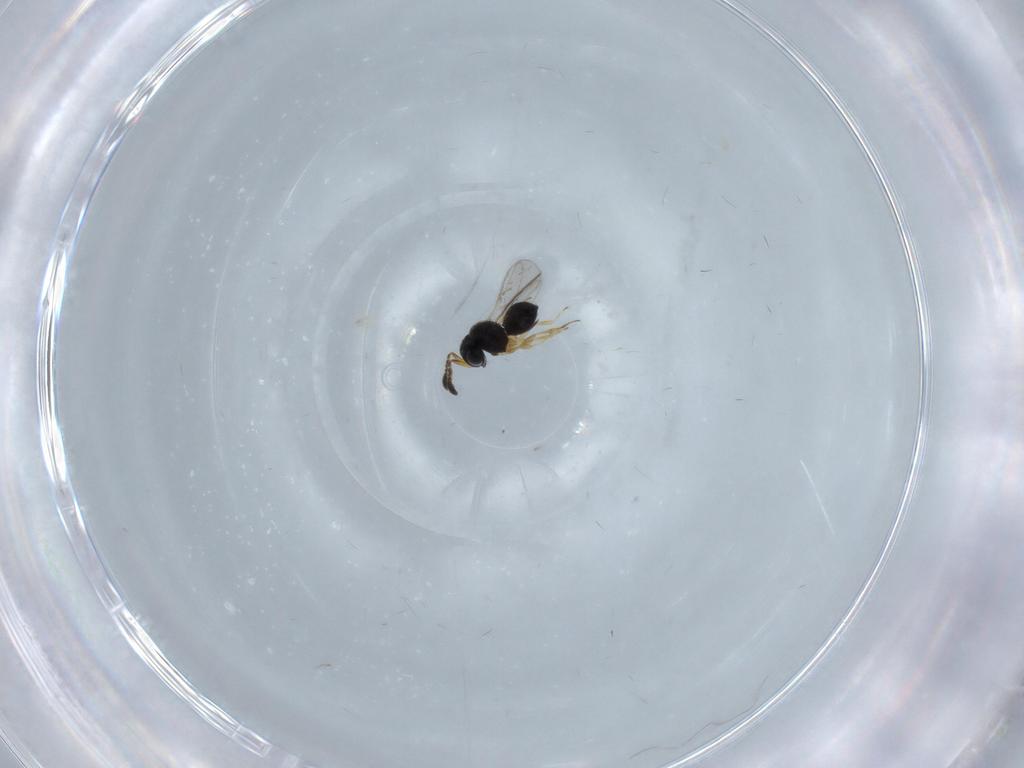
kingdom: Animalia
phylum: Arthropoda
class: Insecta
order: Hymenoptera
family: Scelionidae
